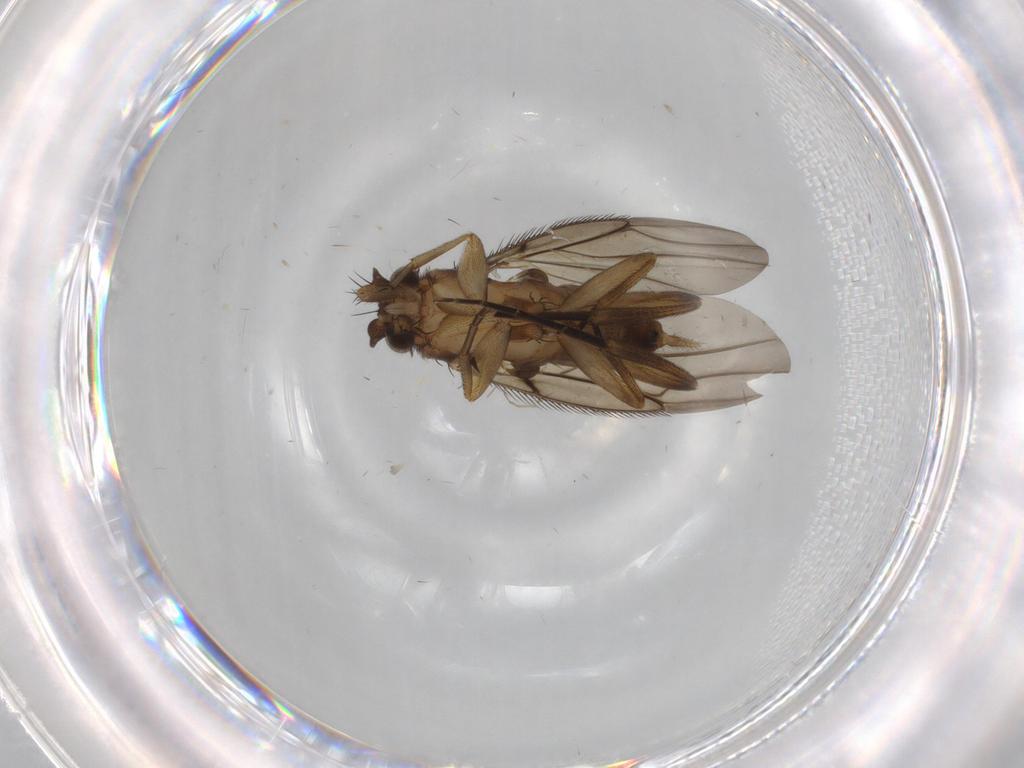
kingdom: Animalia
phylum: Arthropoda
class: Insecta
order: Diptera
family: Phoridae
